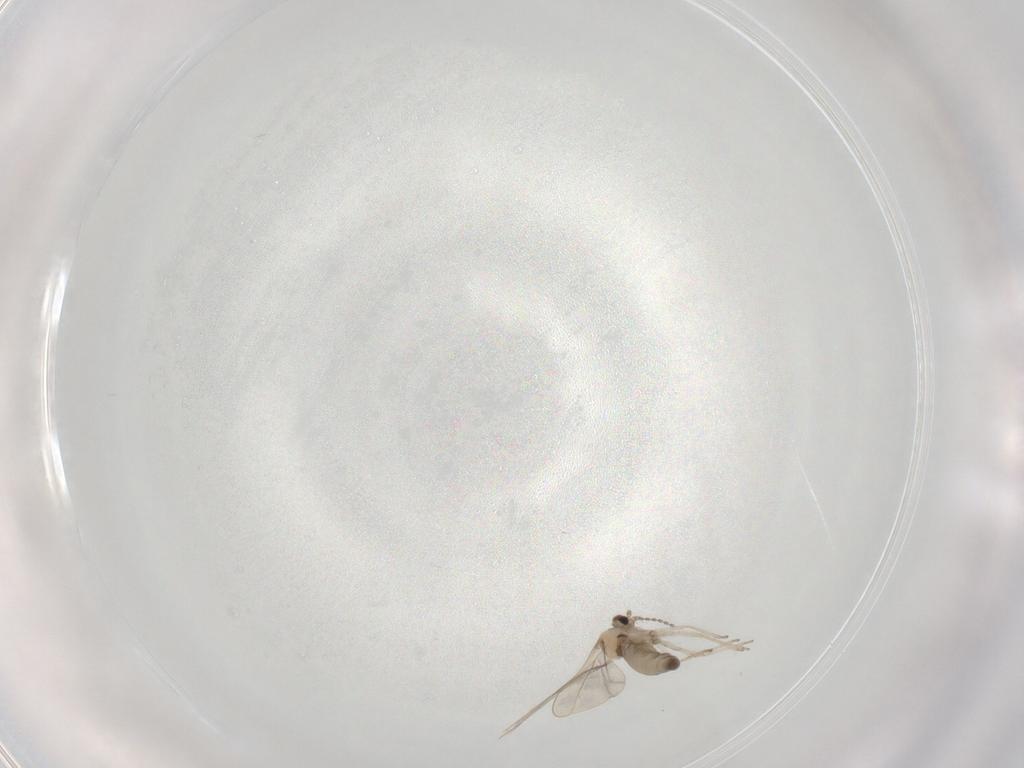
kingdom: Animalia
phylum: Arthropoda
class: Insecta
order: Diptera
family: Cecidomyiidae
